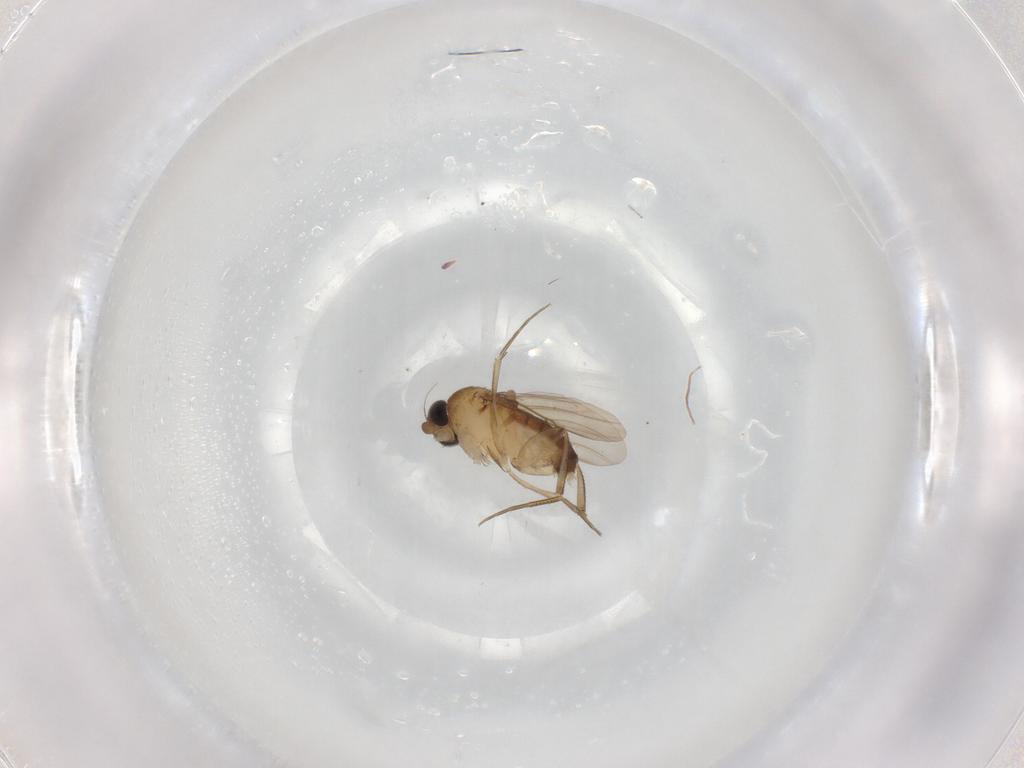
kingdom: Animalia
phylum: Arthropoda
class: Insecta
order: Diptera
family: Phoridae
